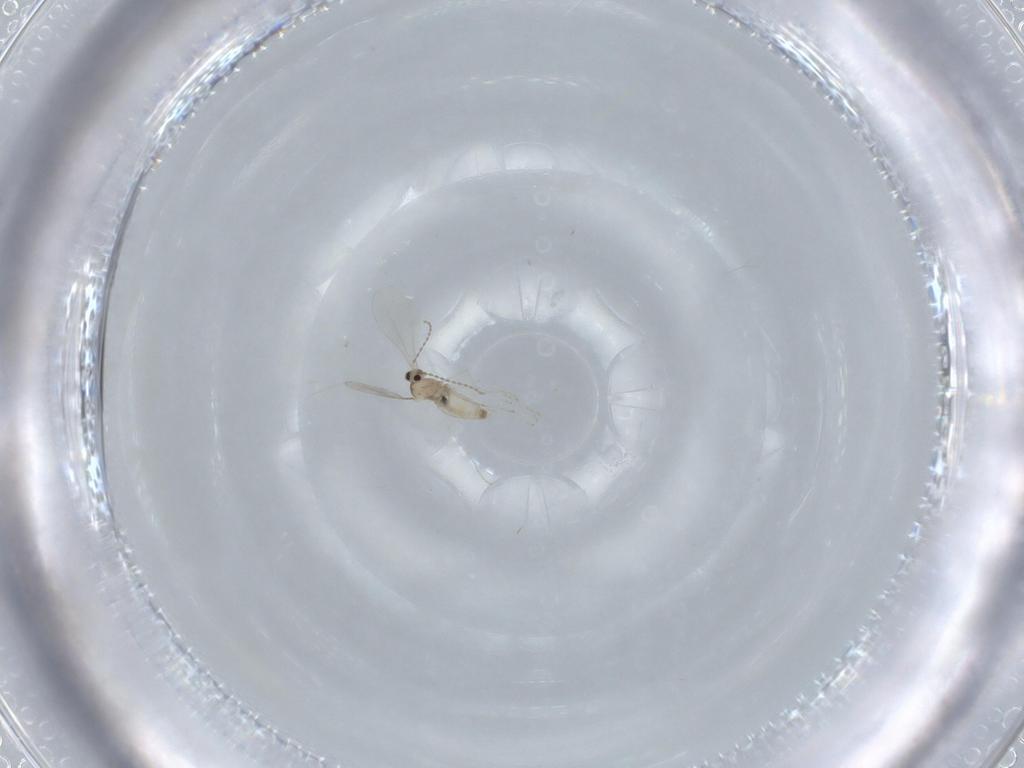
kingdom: Animalia
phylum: Arthropoda
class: Insecta
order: Diptera
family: Cecidomyiidae
